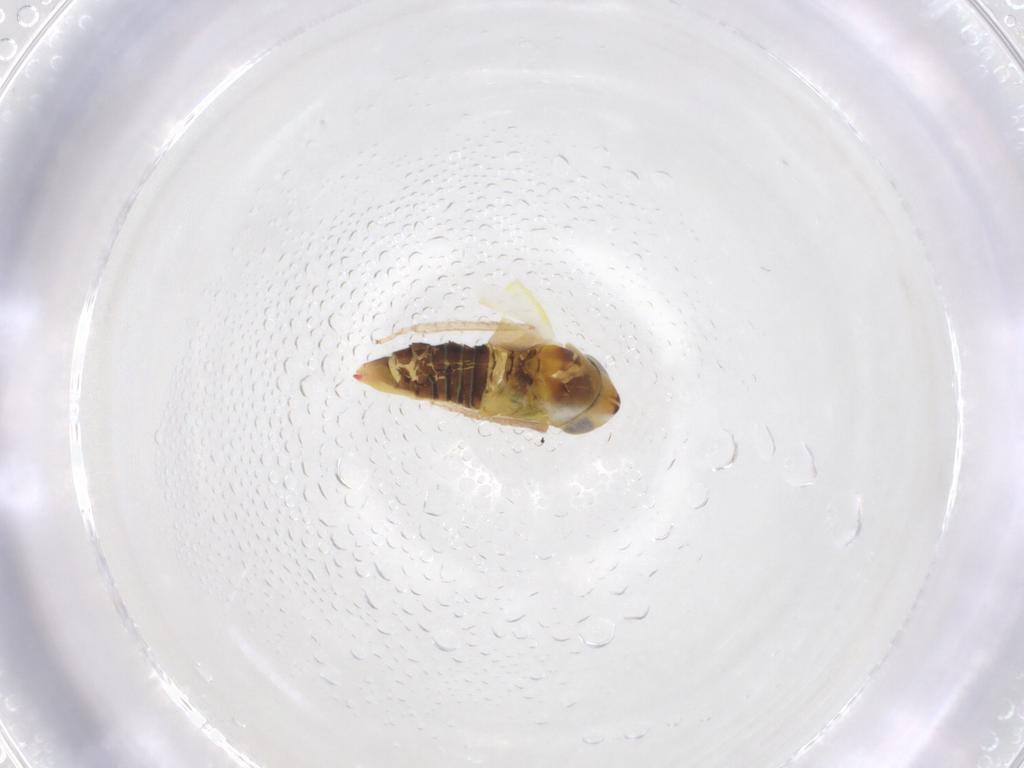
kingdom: Animalia
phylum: Arthropoda
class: Insecta
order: Hemiptera
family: Cicadellidae
